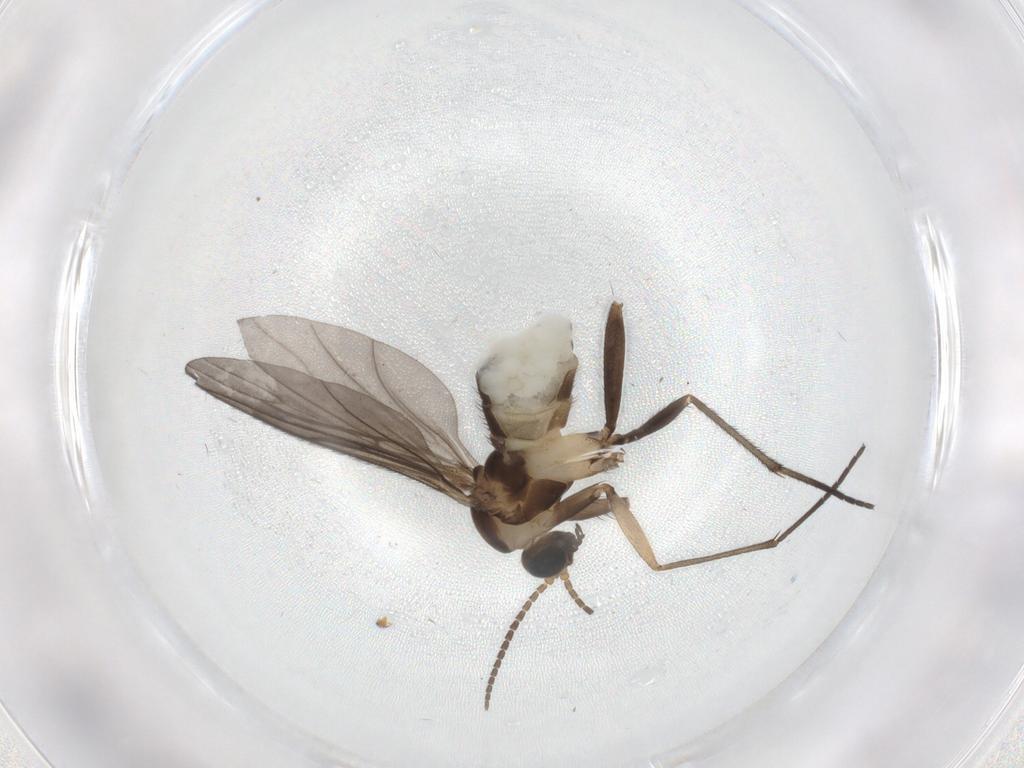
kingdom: Animalia
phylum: Arthropoda
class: Insecta
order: Diptera
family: Sciaridae
